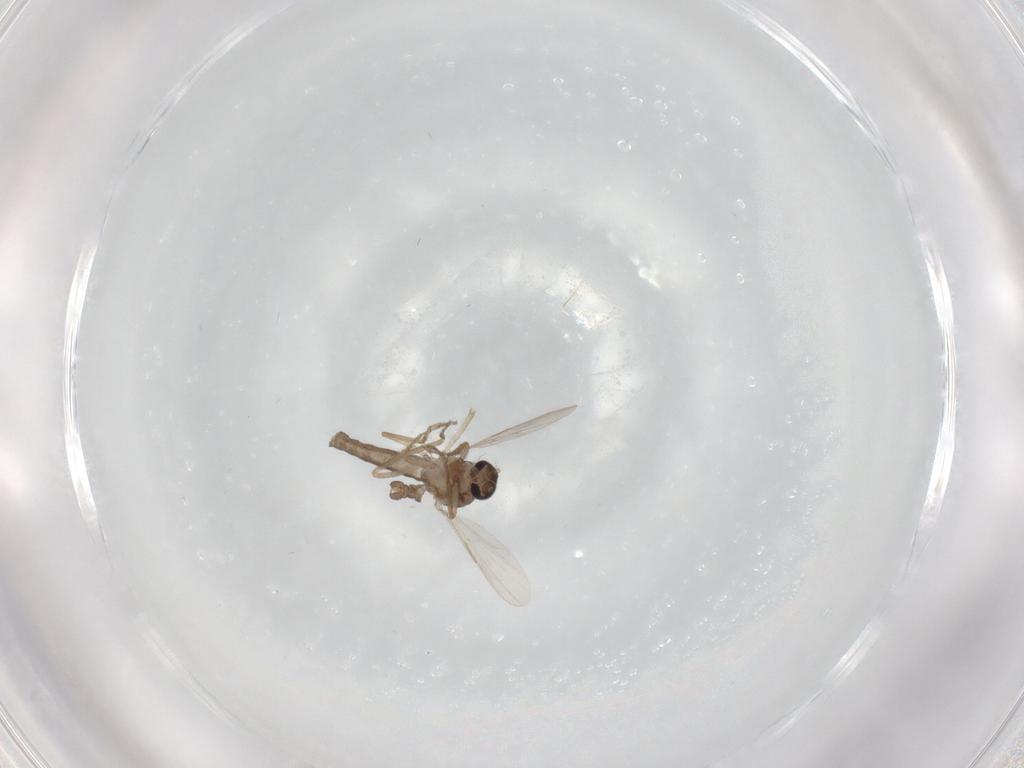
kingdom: Animalia
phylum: Arthropoda
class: Insecta
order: Diptera
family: Ceratopogonidae
